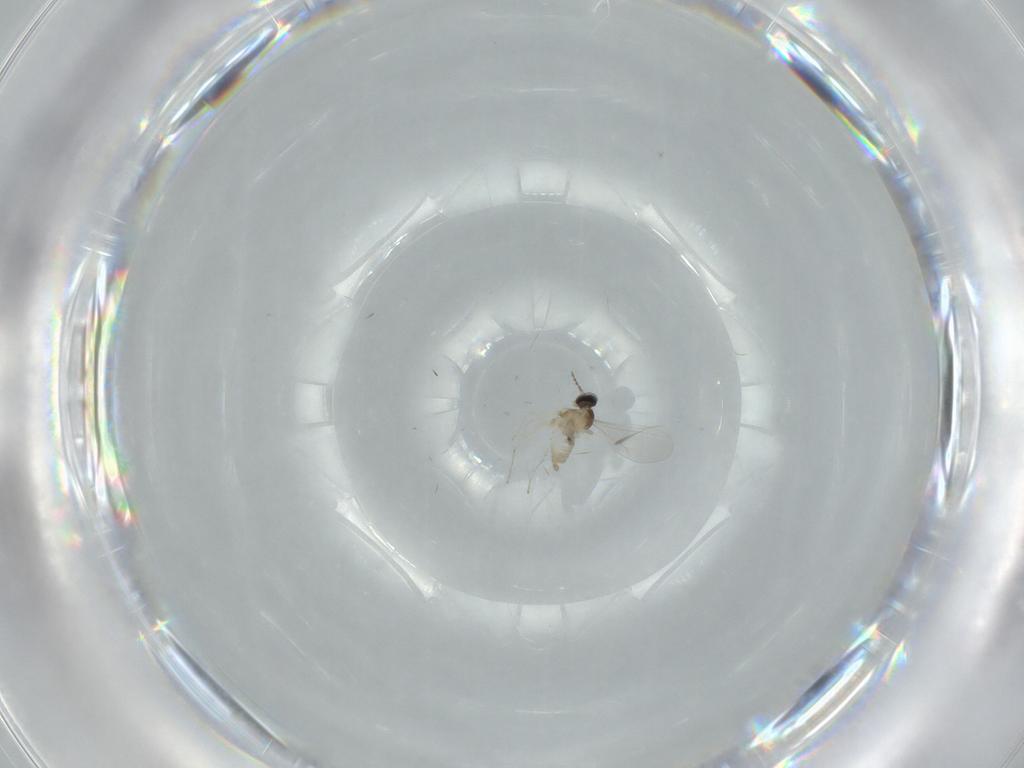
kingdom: Animalia
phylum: Arthropoda
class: Insecta
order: Diptera
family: Cecidomyiidae
